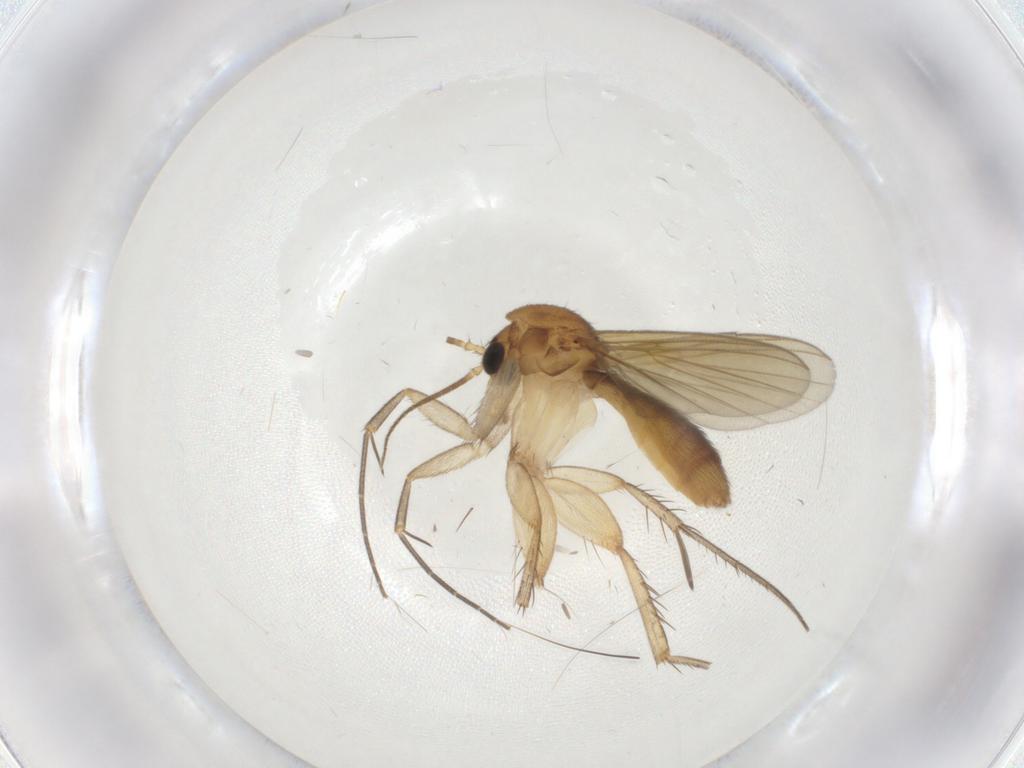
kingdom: Animalia
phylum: Arthropoda
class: Insecta
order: Diptera
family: Psychodidae
